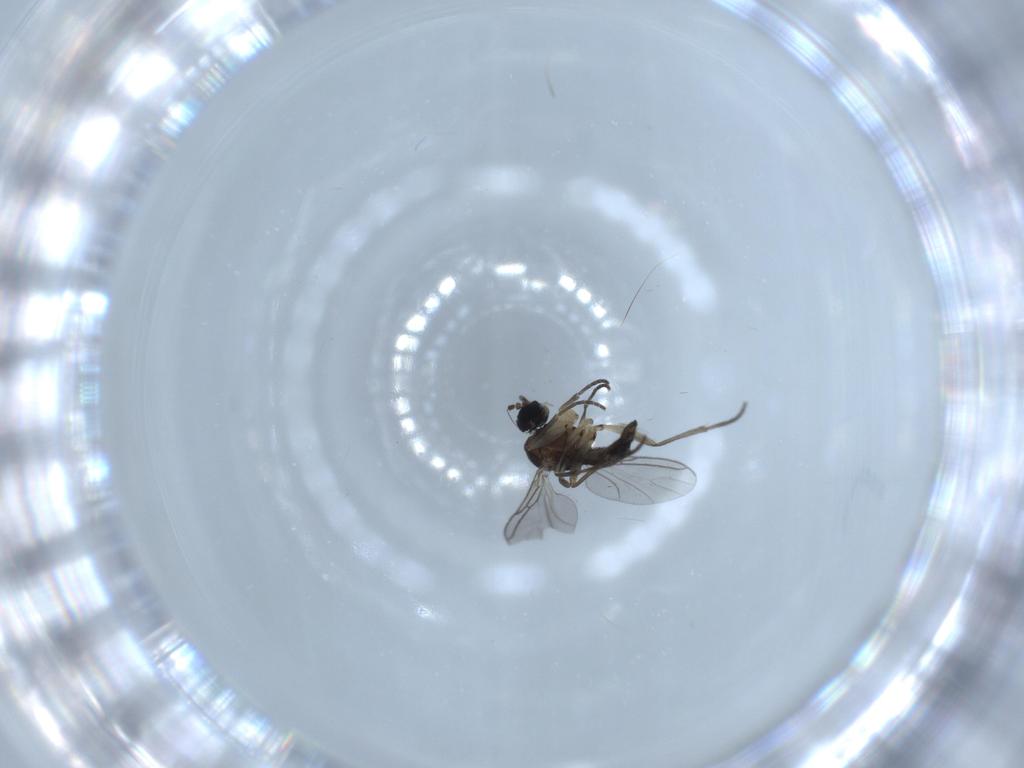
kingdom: Animalia
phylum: Arthropoda
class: Insecta
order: Diptera
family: Sciaridae
